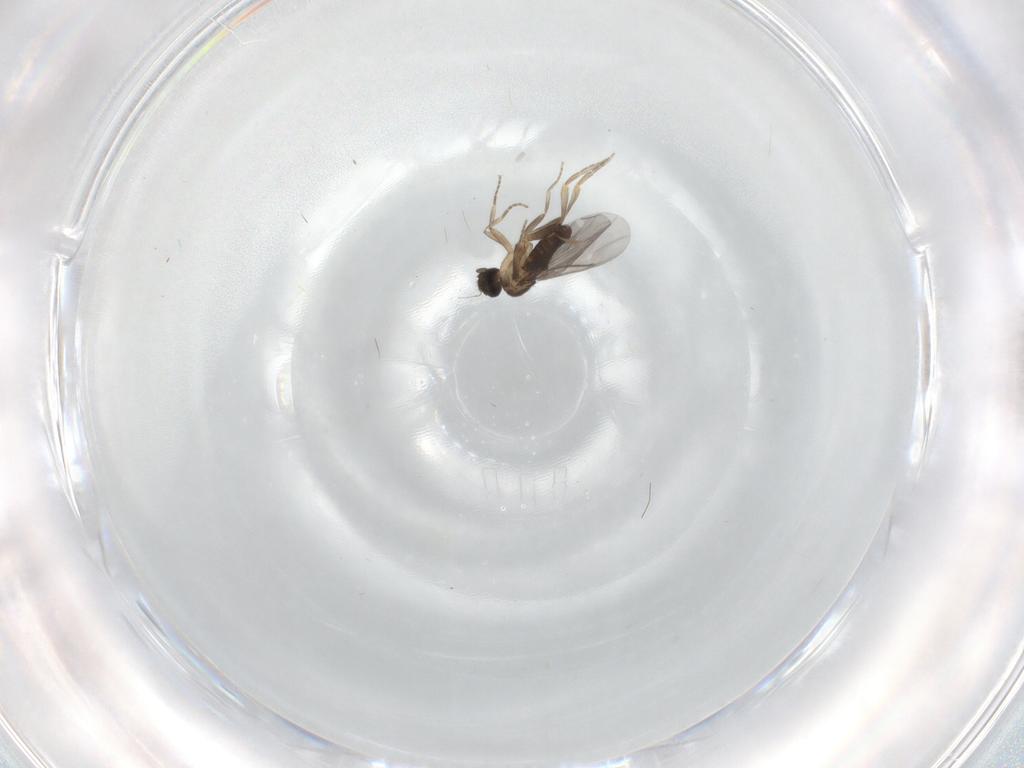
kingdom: Animalia
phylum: Arthropoda
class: Insecta
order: Diptera
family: Ceratopogonidae
